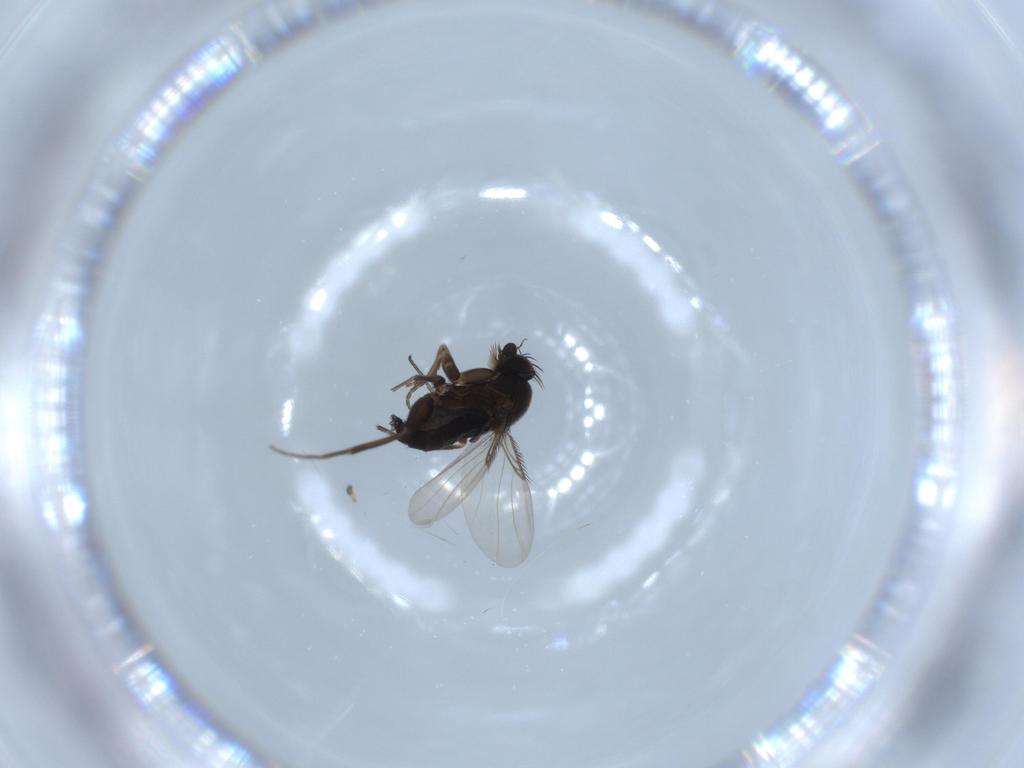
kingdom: Animalia
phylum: Arthropoda
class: Insecta
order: Diptera
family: Phoridae
